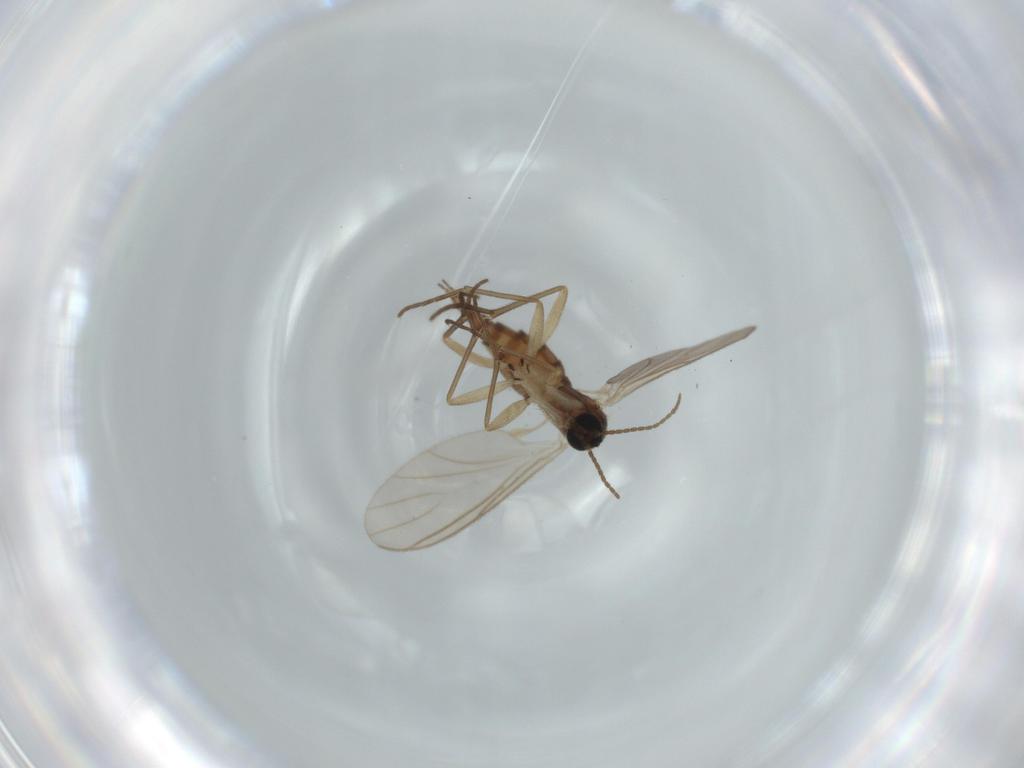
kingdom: Animalia
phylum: Arthropoda
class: Insecta
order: Diptera
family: Sciaridae
